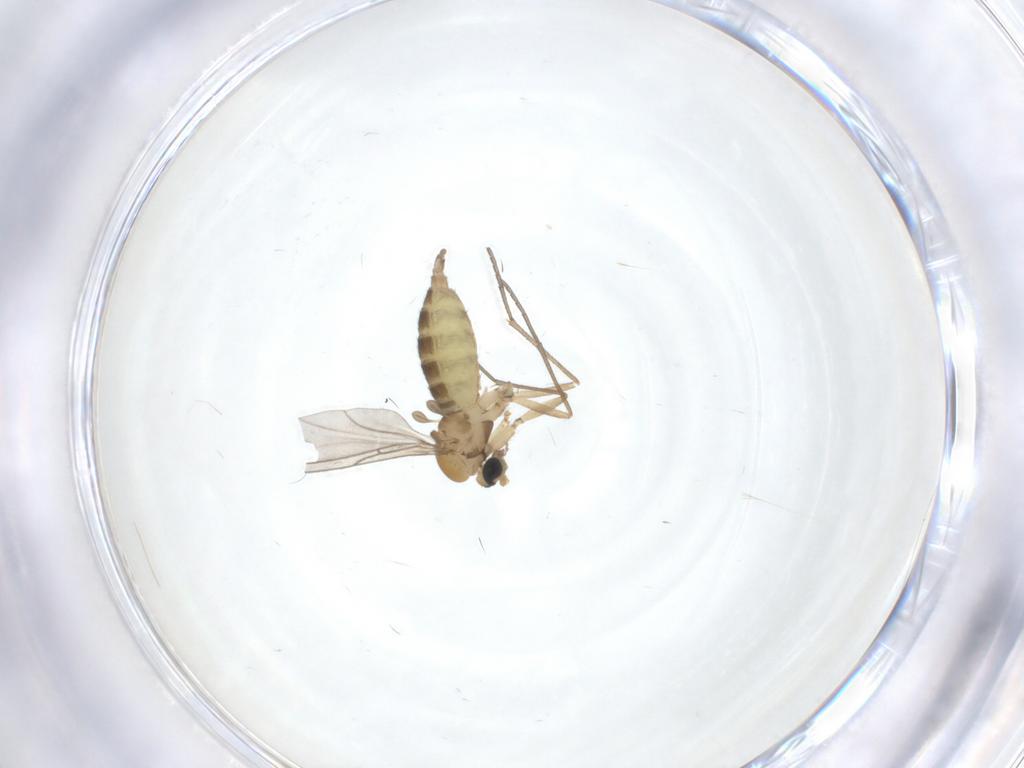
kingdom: Animalia
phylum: Arthropoda
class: Insecta
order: Diptera
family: Sciaridae
